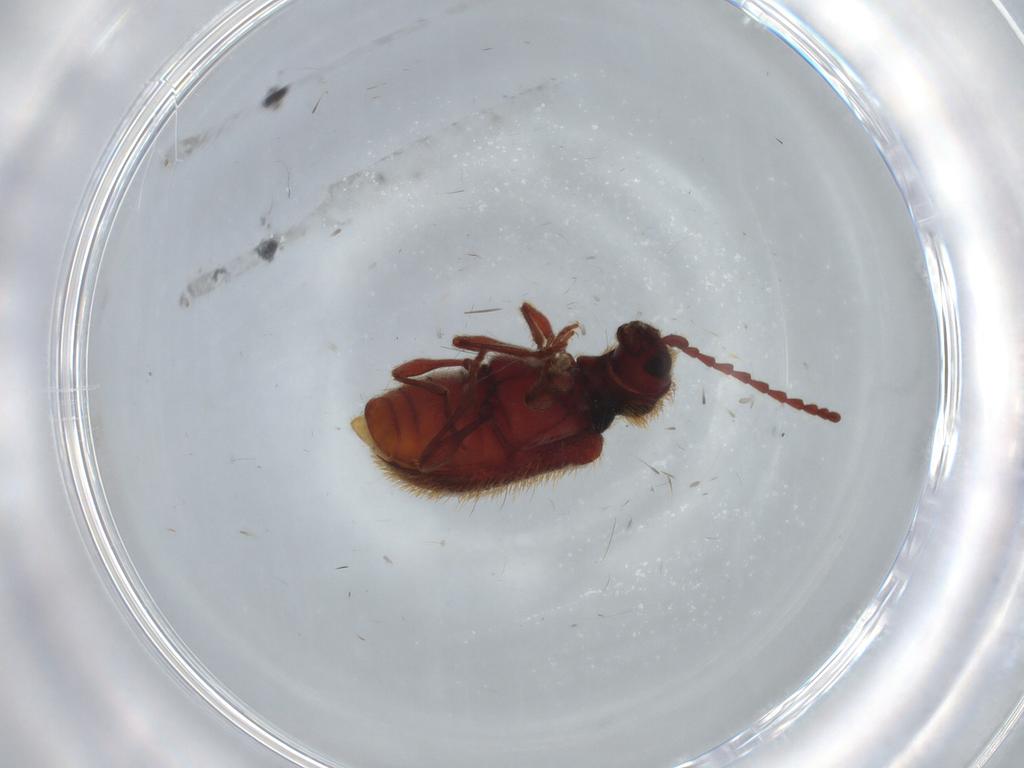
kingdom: Animalia
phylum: Arthropoda
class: Insecta
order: Coleoptera
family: Ptinidae
